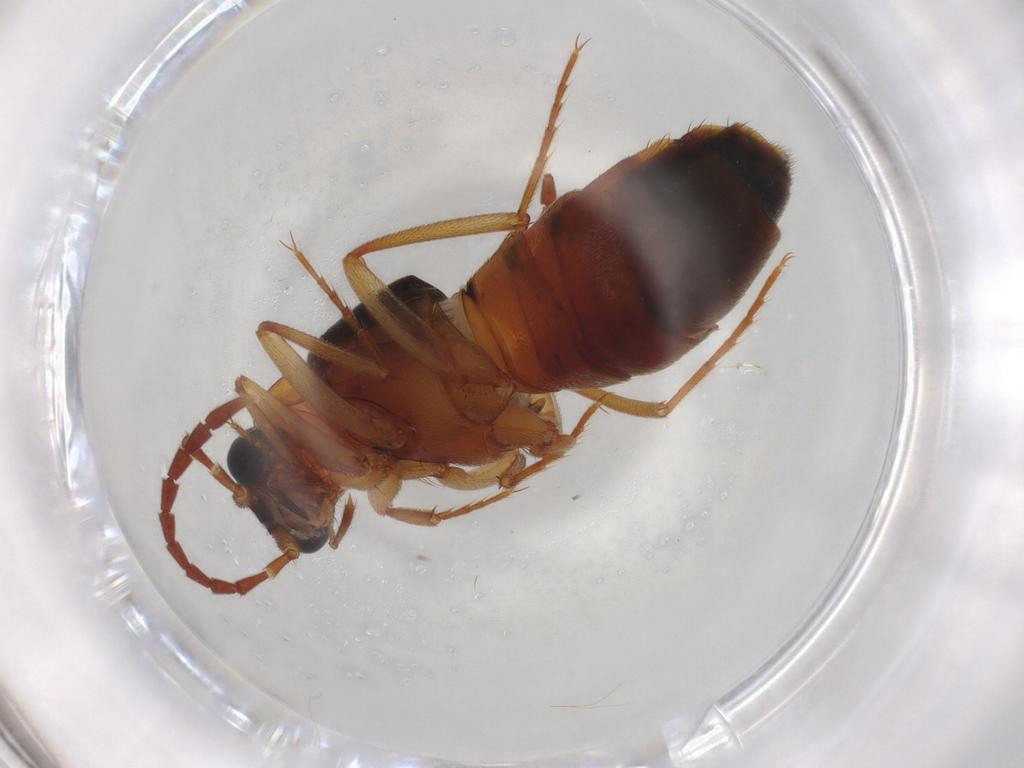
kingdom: Animalia
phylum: Arthropoda
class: Insecta
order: Coleoptera
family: Staphylinidae
